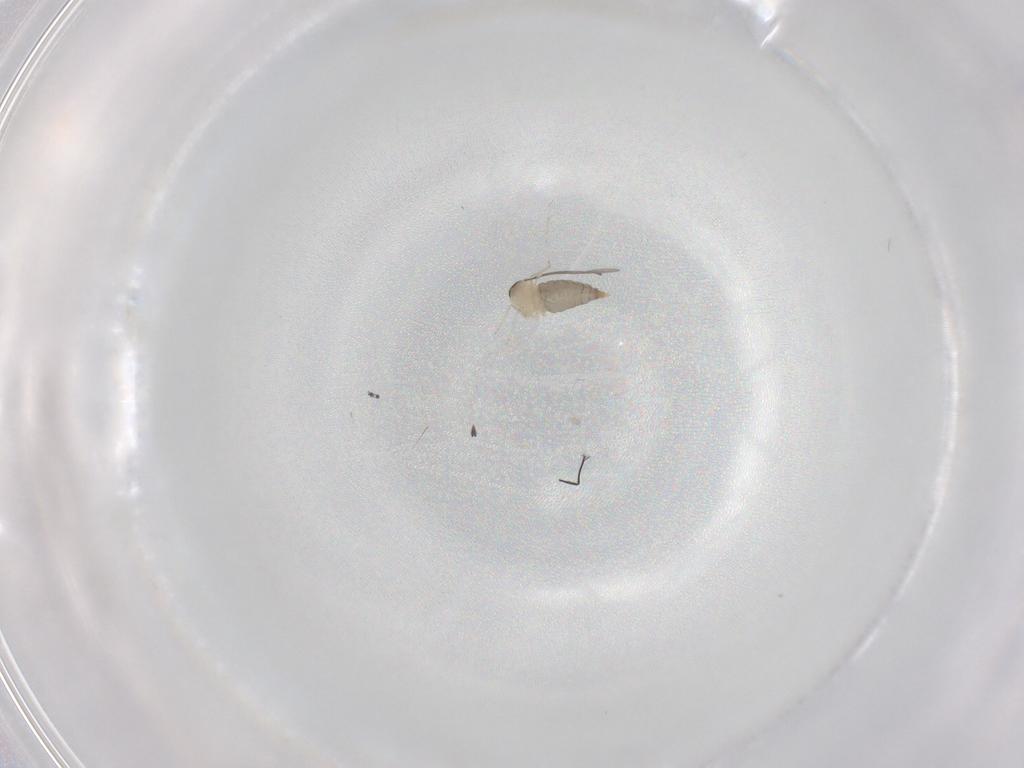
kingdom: Animalia
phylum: Arthropoda
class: Insecta
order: Diptera
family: Cecidomyiidae
